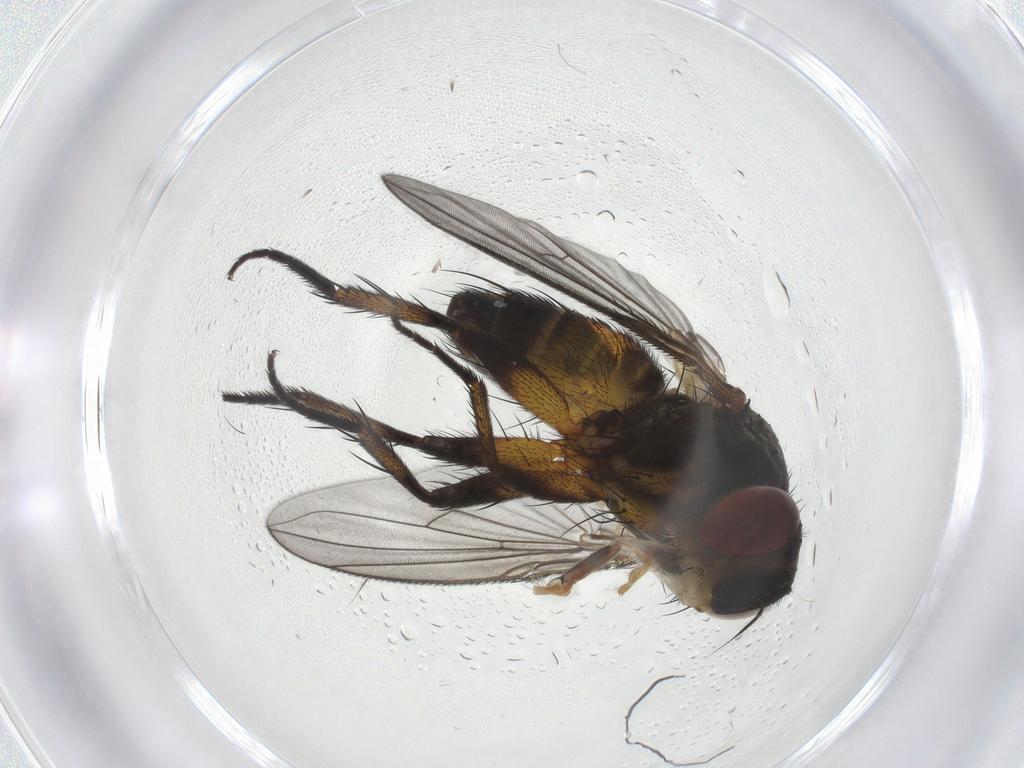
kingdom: Animalia
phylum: Arthropoda
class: Insecta
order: Diptera
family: Tachinidae
